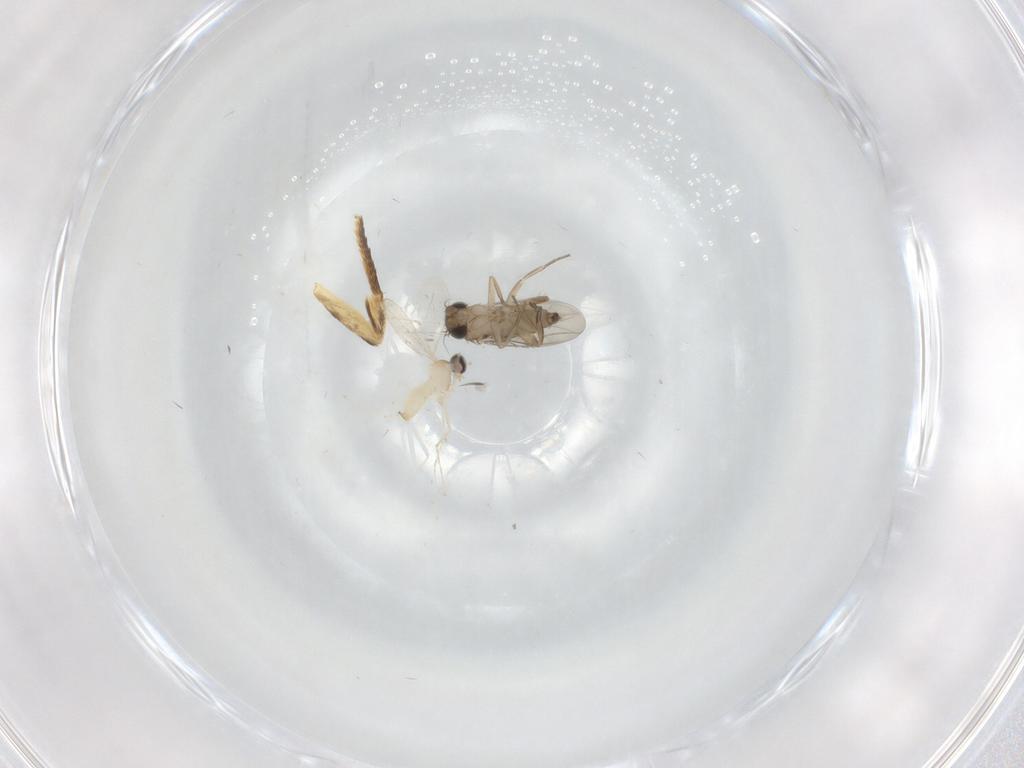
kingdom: Animalia
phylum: Arthropoda
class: Insecta
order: Diptera
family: Cecidomyiidae
